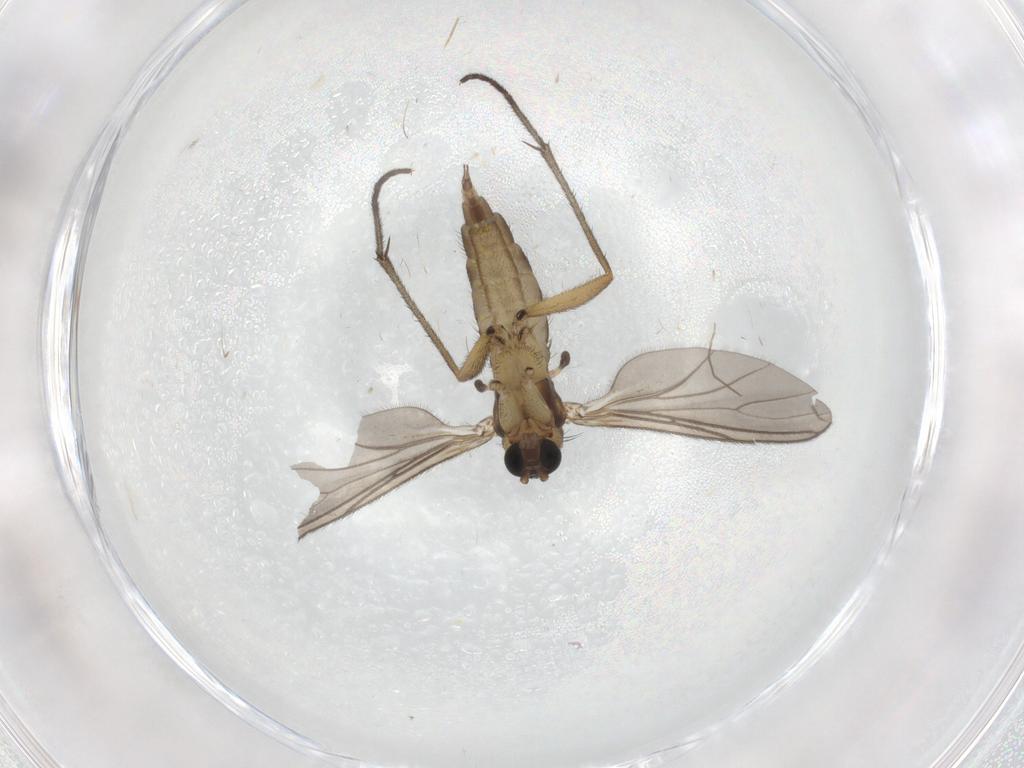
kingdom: Animalia
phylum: Arthropoda
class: Insecta
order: Diptera
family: Sciaridae
